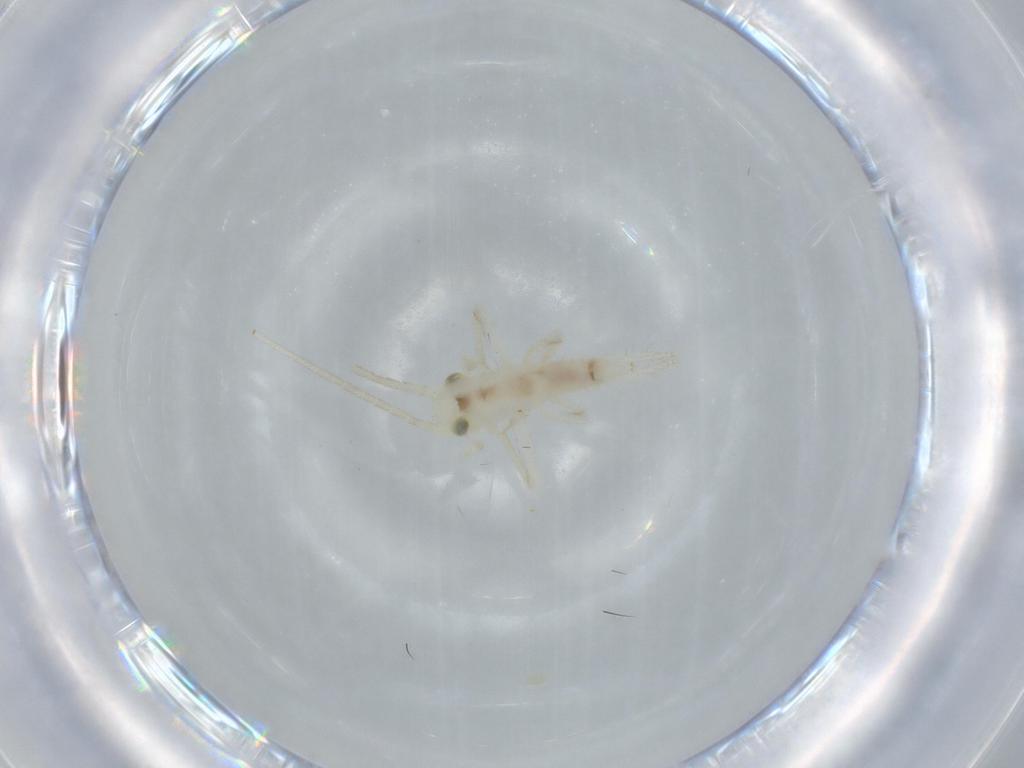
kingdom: Animalia
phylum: Arthropoda
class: Insecta
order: Orthoptera
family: Trigonidiidae
